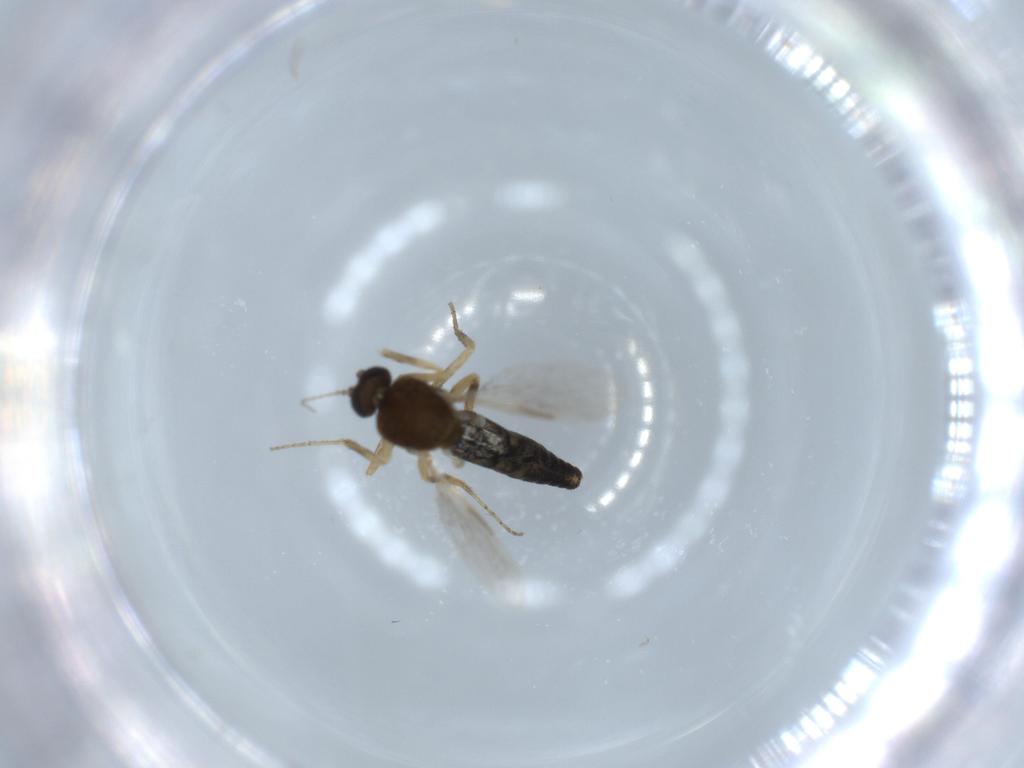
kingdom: Animalia
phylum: Arthropoda
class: Insecta
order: Diptera
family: Ceratopogonidae
